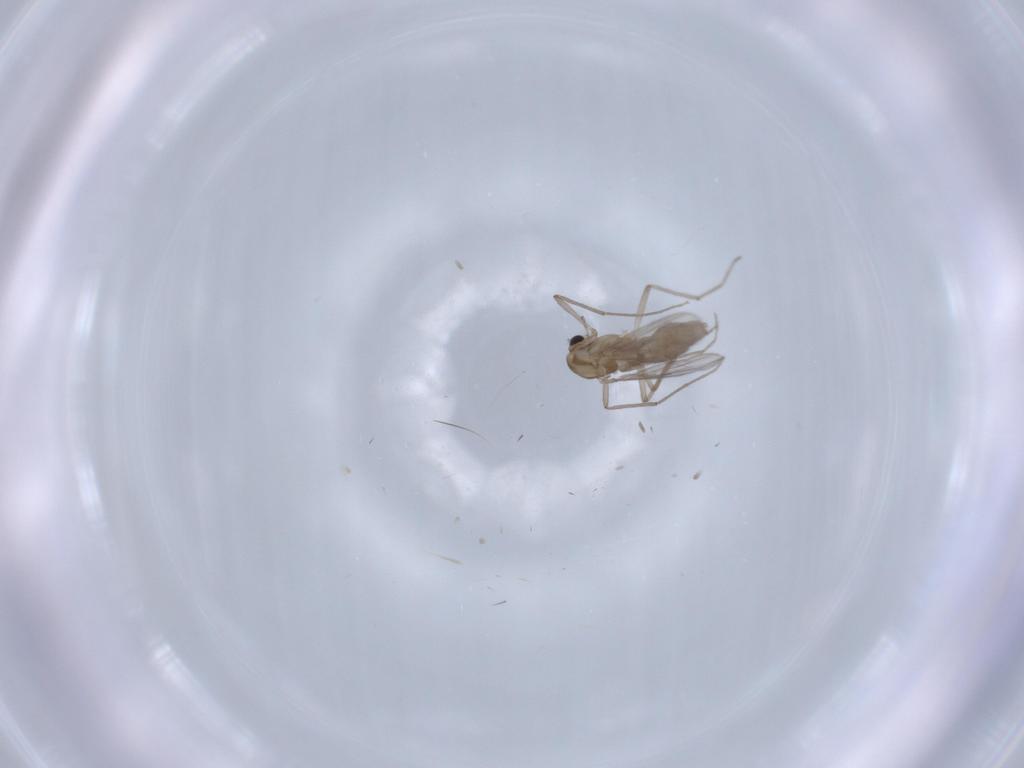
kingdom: Animalia
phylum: Arthropoda
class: Insecta
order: Diptera
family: Chironomidae
